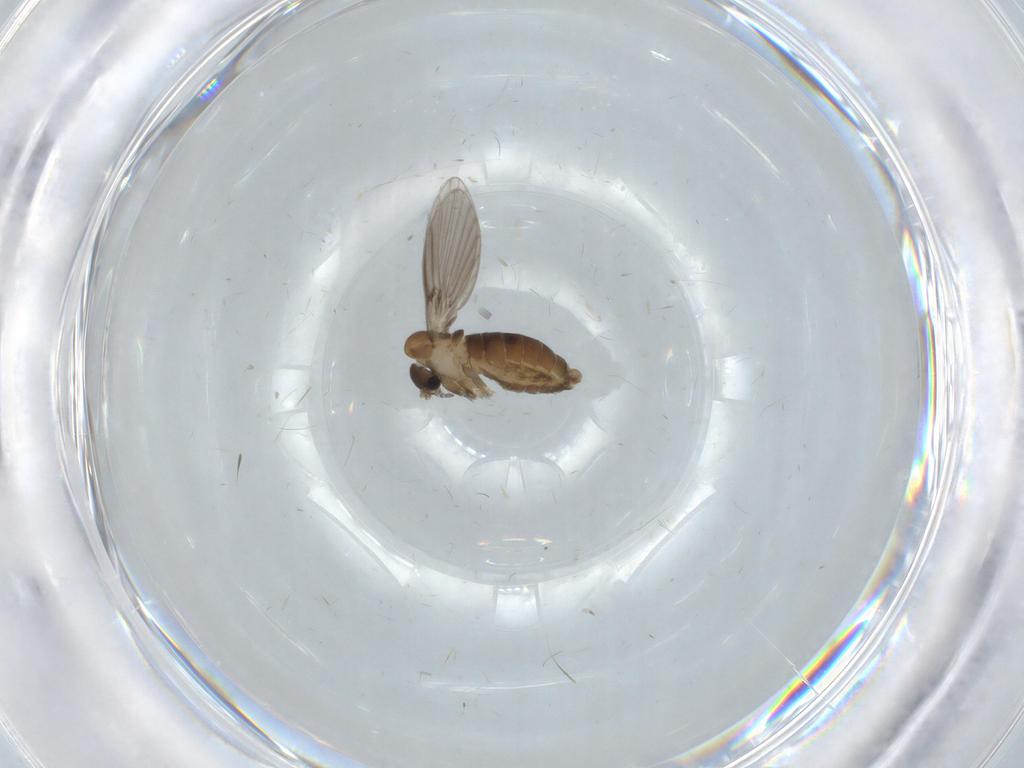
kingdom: Animalia
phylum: Arthropoda
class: Insecta
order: Diptera
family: Psychodidae
